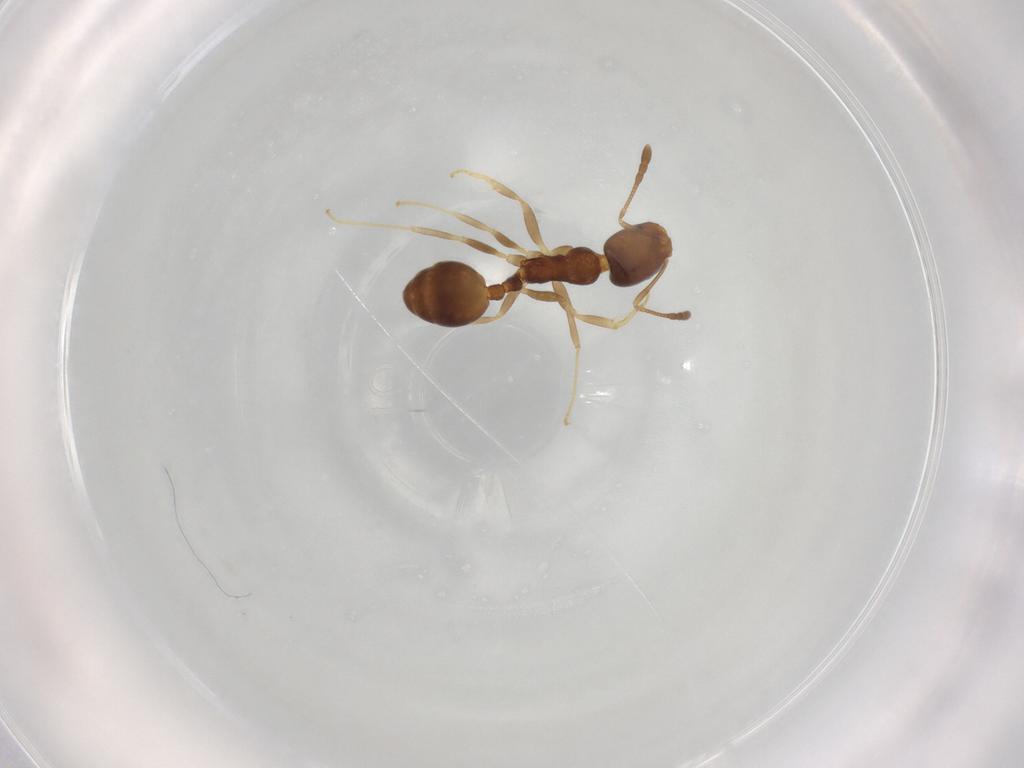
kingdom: Animalia
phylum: Arthropoda
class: Insecta
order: Hymenoptera
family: Formicidae
